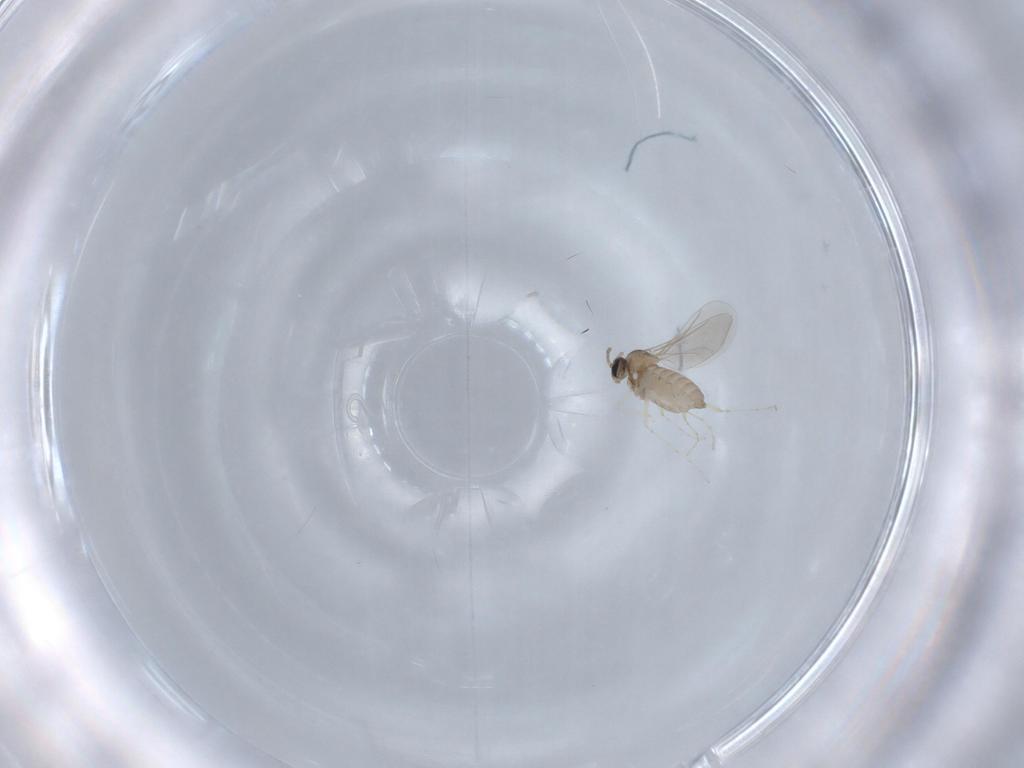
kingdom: Animalia
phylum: Arthropoda
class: Insecta
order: Diptera
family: Cecidomyiidae
